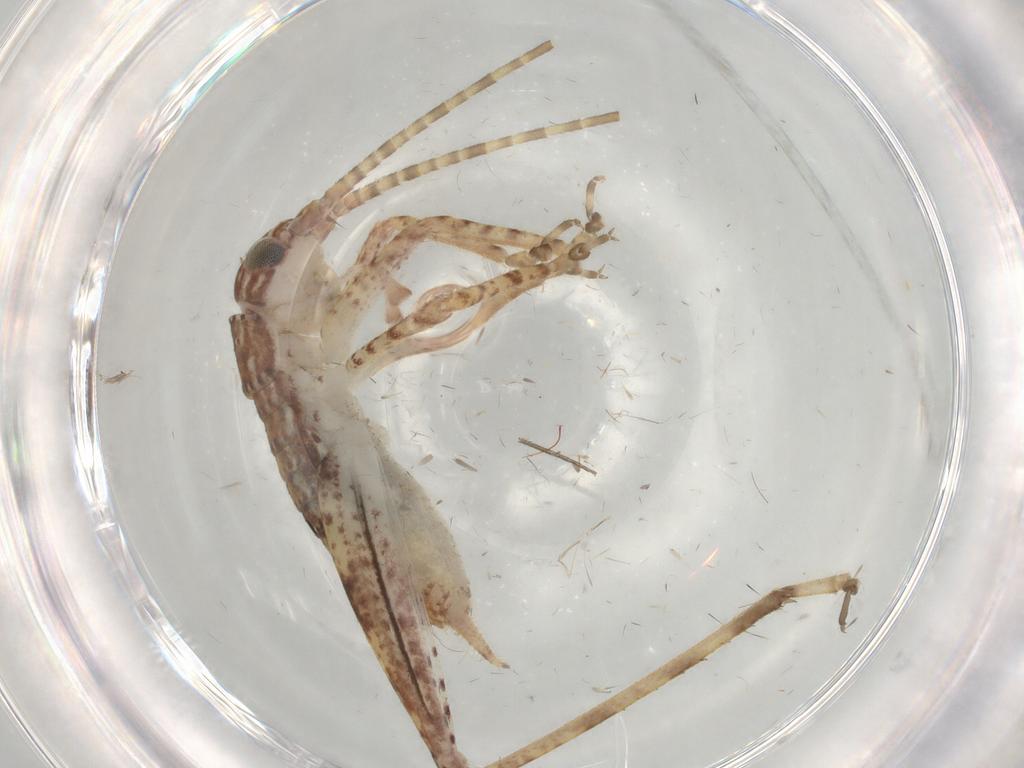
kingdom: Animalia
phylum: Arthropoda
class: Insecta
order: Orthoptera
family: Gryllidae
